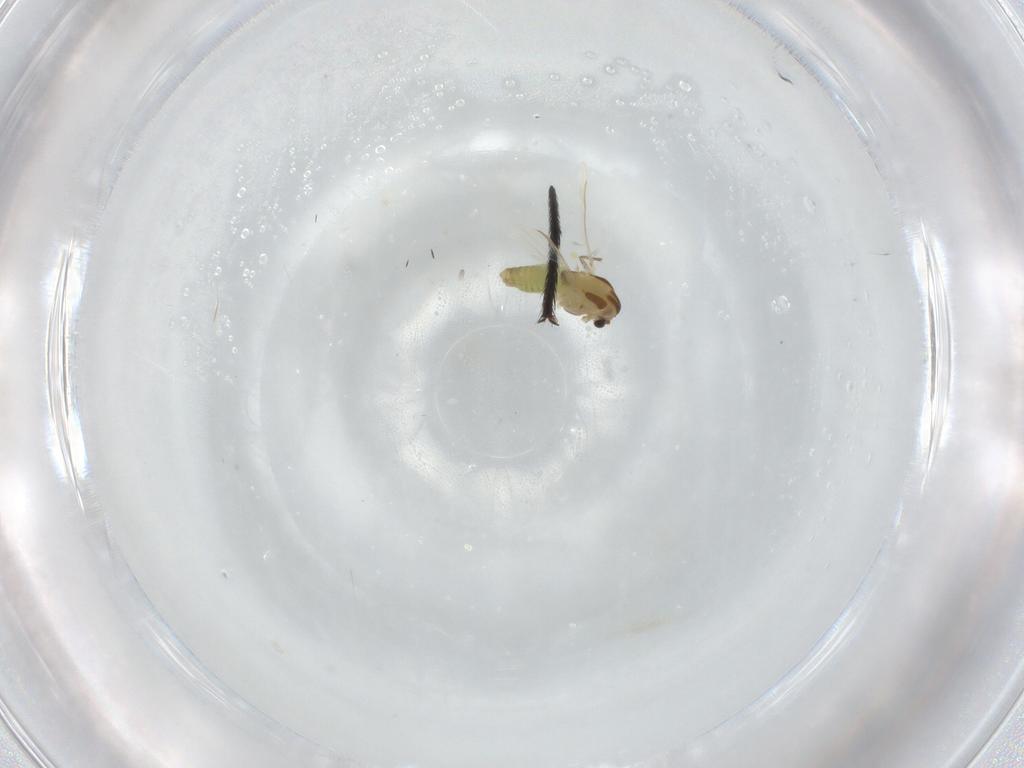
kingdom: Animalia
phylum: Arthropoda
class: Insecta
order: Diptera
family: Chironomidae
